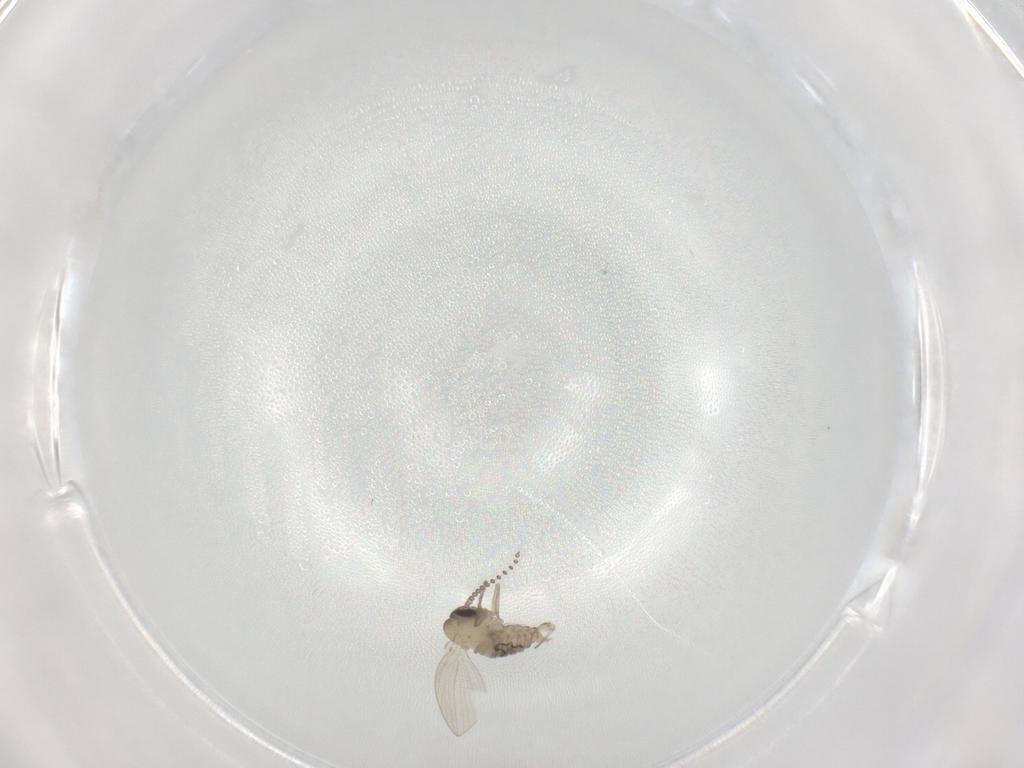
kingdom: Animalia
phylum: Arthropoda
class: Insecta
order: Diptera
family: Psychodidae
